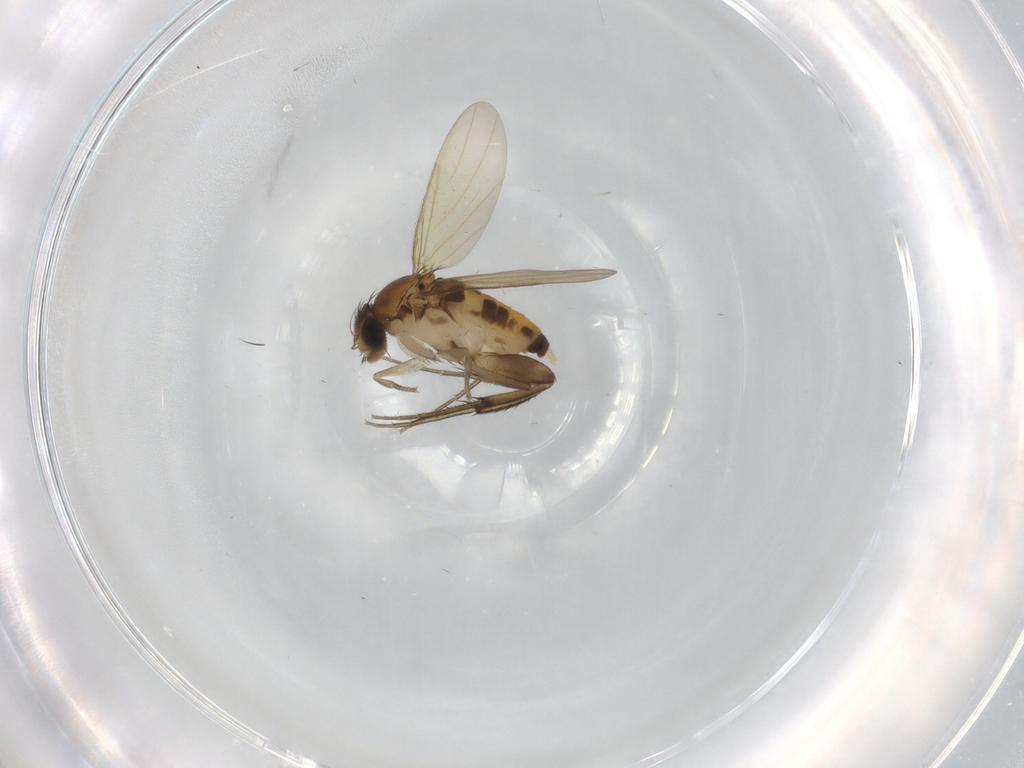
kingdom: Animalia
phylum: Arthropoda
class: Insecta
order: Diptera
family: Phoridae
